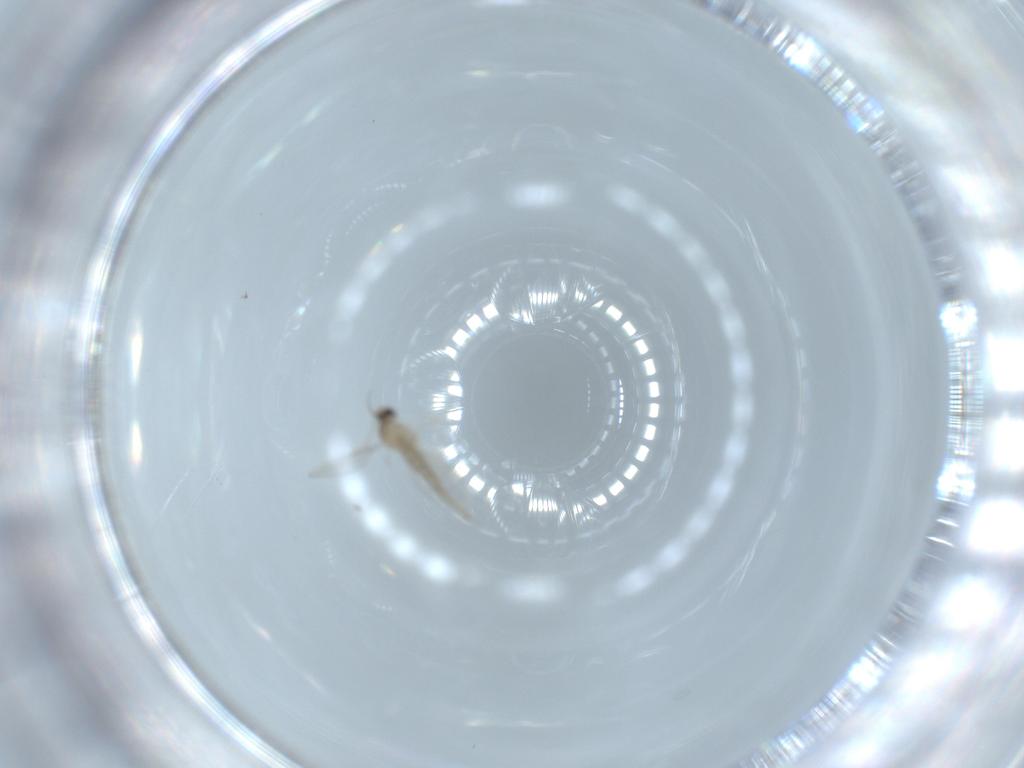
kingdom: Animalia
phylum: Arthropoda
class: Insecta
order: Diptera
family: Cecidomyiidae
